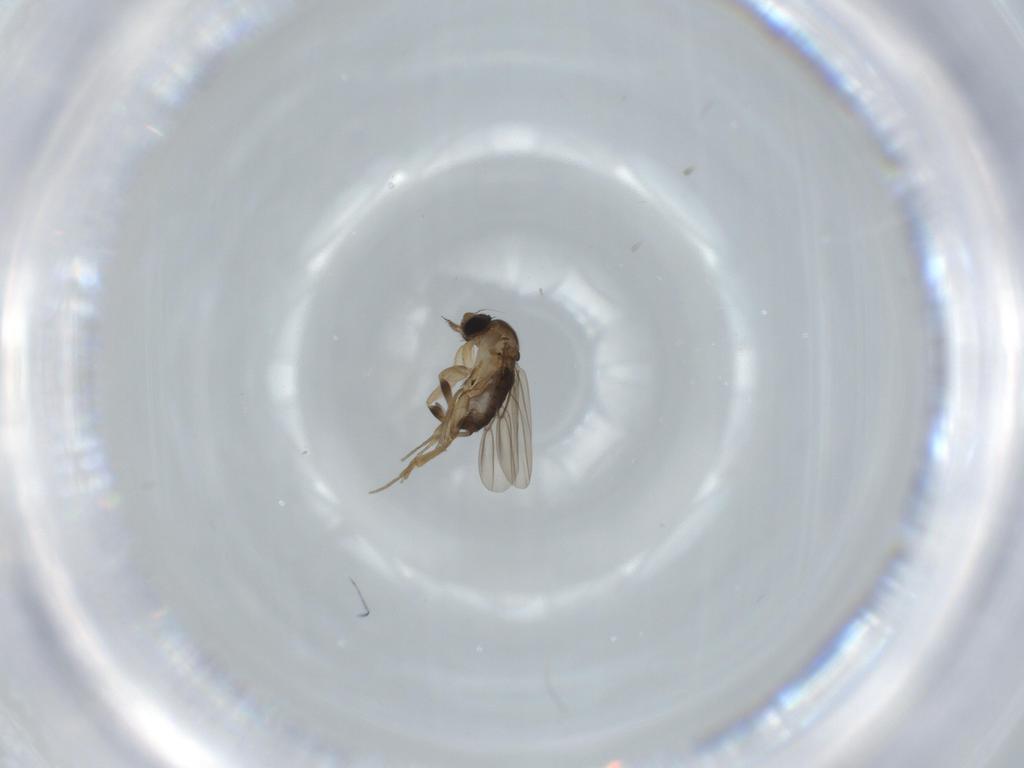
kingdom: Animalia
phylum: Arthropoda
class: Insecta
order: Diptera
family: Phoridae
